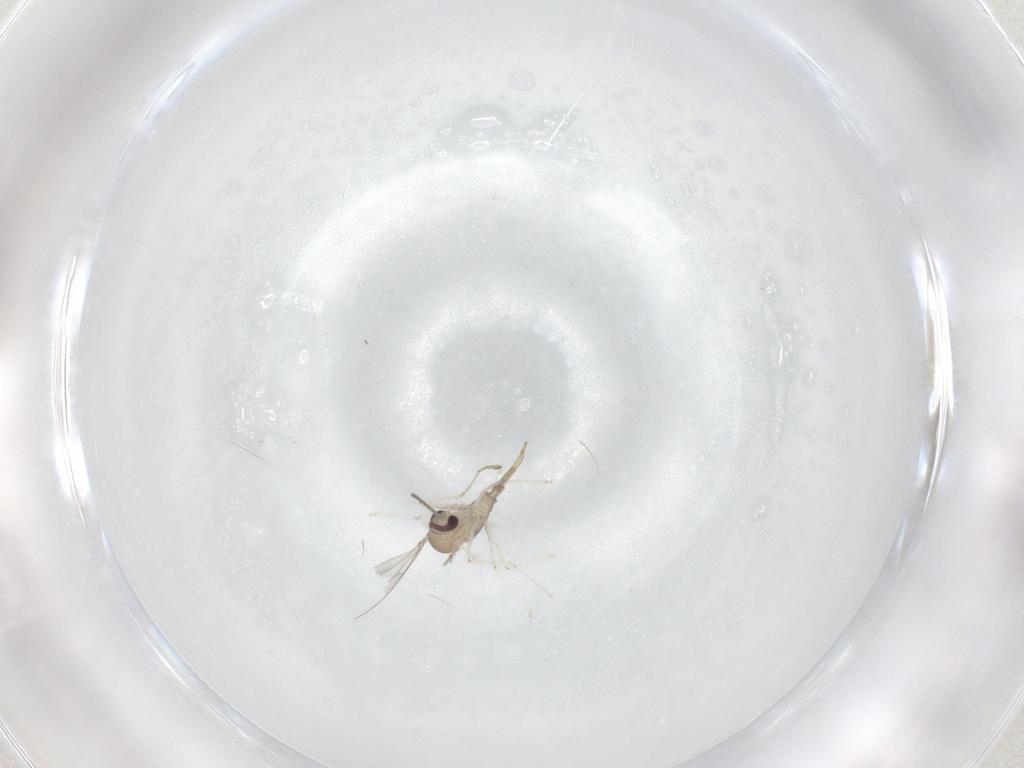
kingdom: Animalia
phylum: Arthropoda
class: Insecta
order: Diptera
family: Cecidomyiidae
